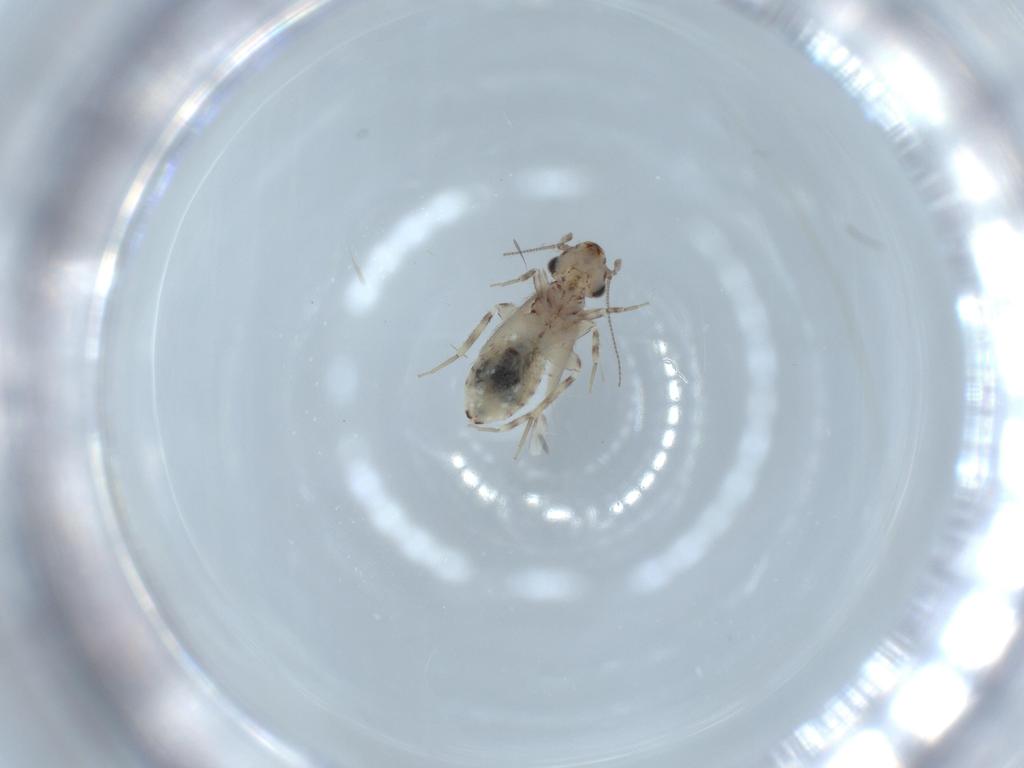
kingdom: Animalia
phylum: Arthropoda
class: Insecta
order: Psocodea
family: Lepidopsocidae
